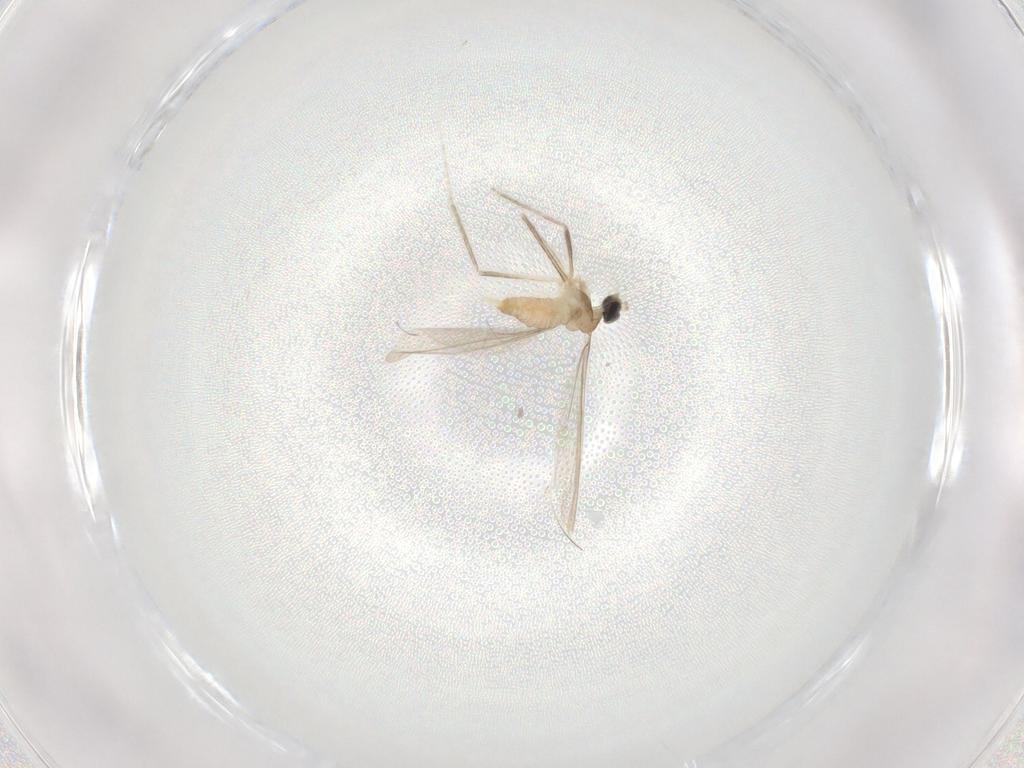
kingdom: Animalia
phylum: Arthropoda
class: Insecta
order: Diptera
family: Cecidomyiidae
